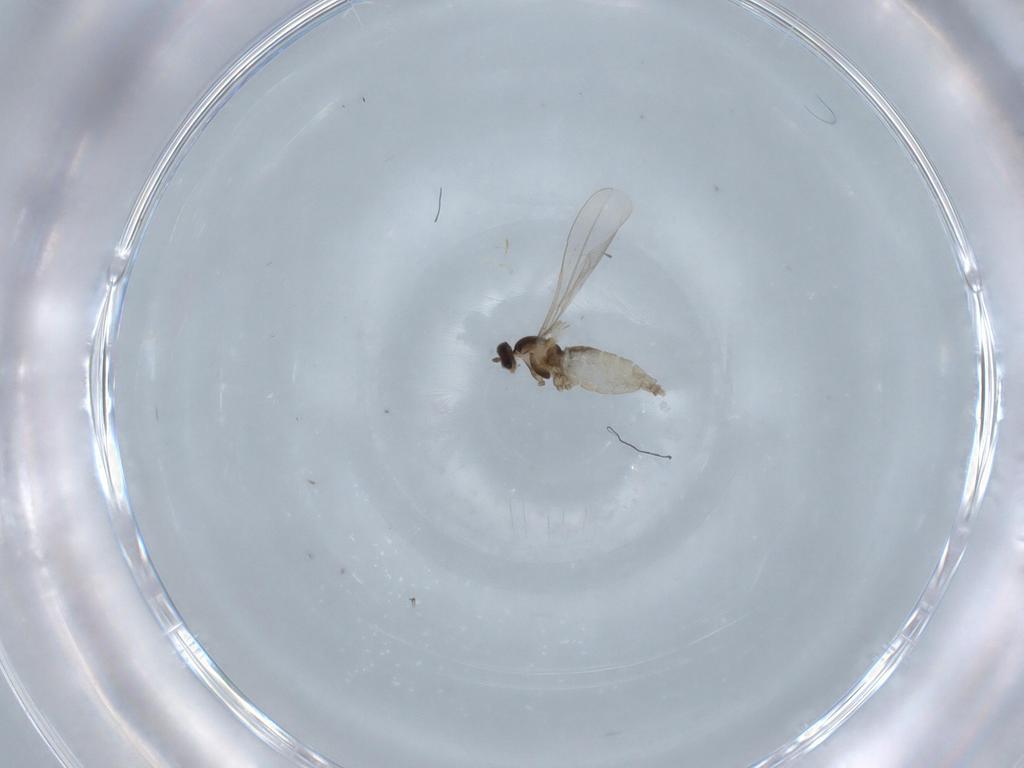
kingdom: Animalia
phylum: Arthropoda
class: Insecta
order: Diptera
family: Cecidomyiidae
